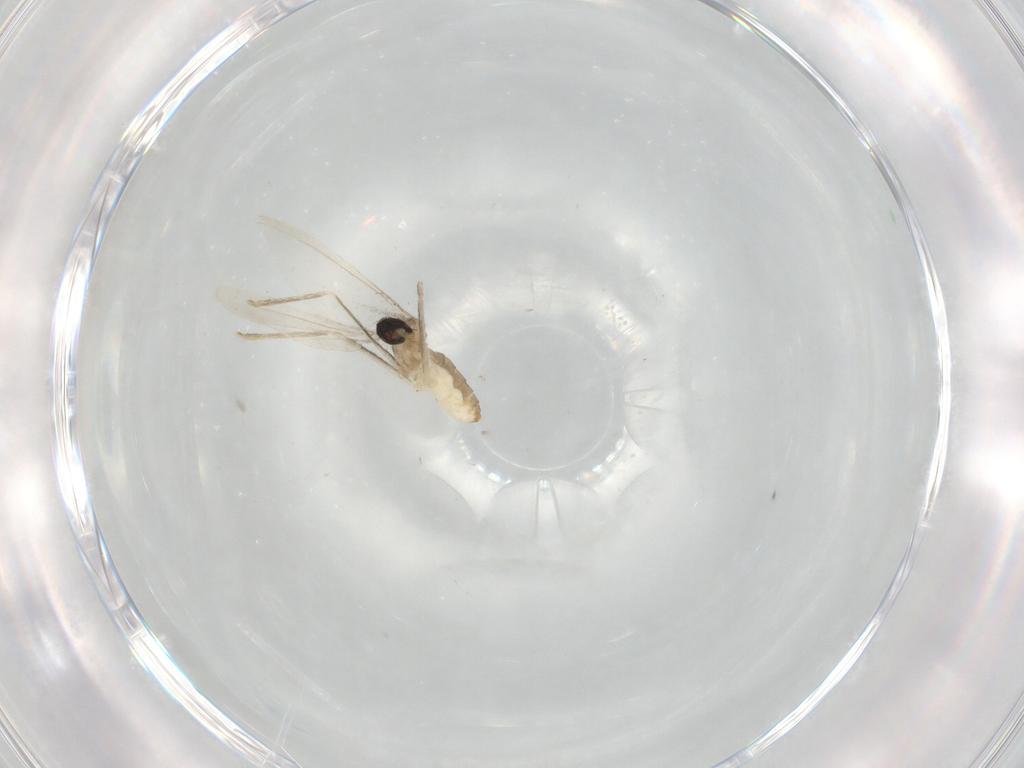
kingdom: Animalia
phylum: Arthropoda
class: Insecta
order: Diptera
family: Cecidomyiidae
